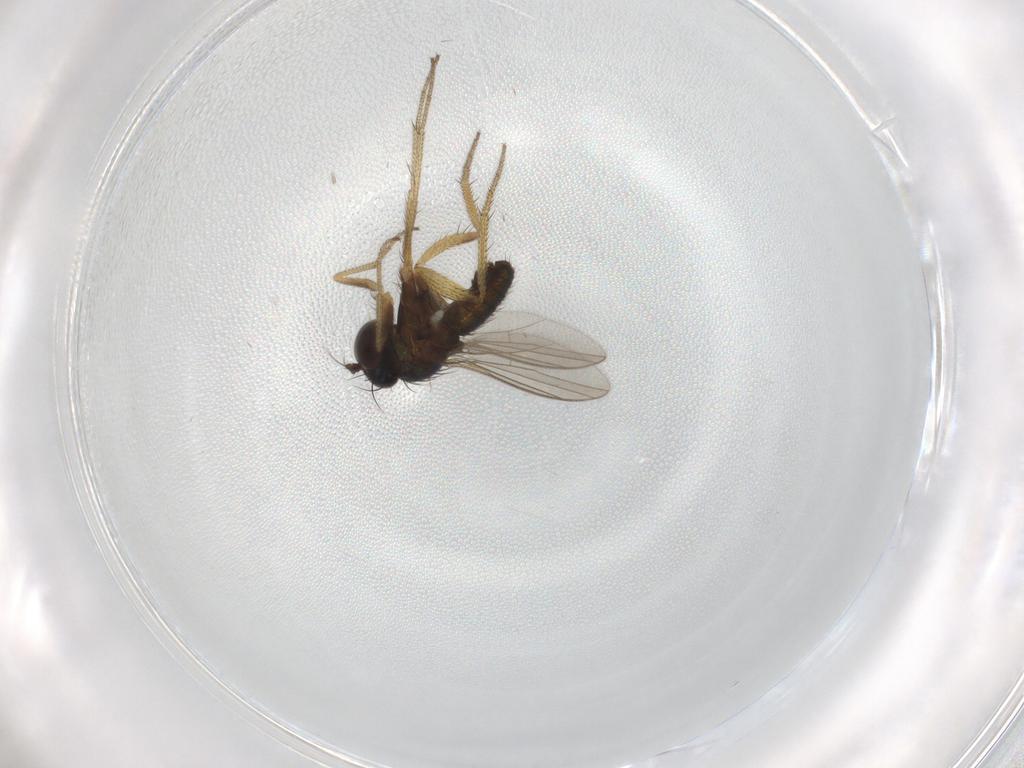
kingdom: Animalia
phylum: Arthropoda
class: Insecta
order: Diptera
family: Dolichopodidae
